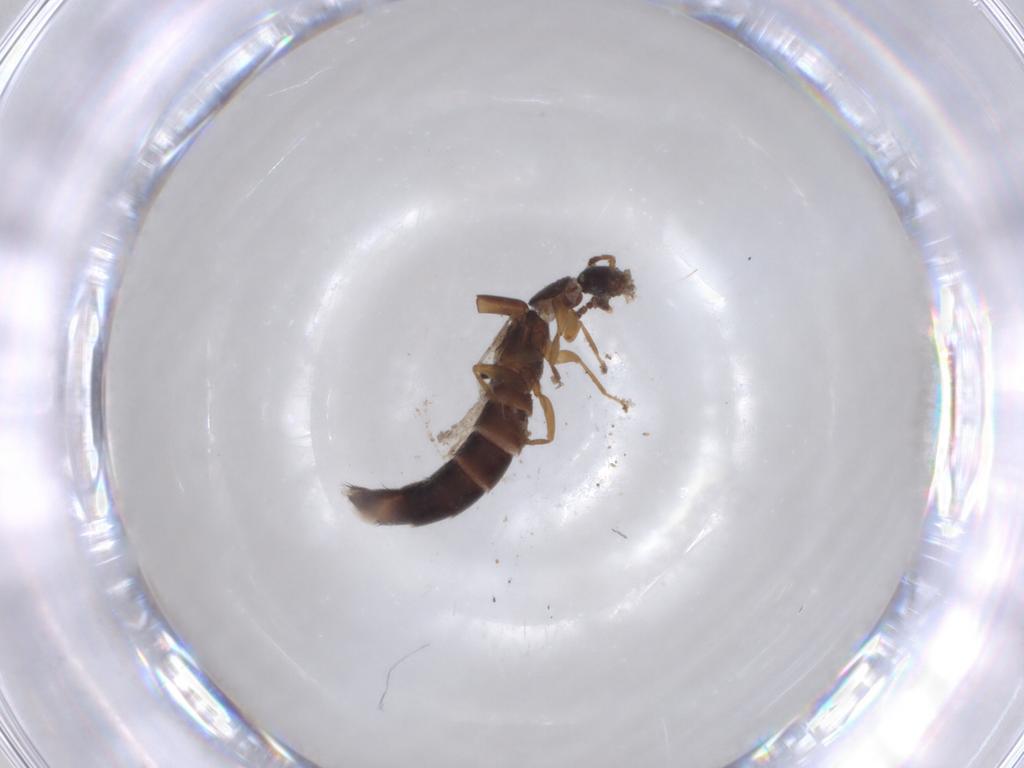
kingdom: Animalia
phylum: Arthropoda
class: Insecta
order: Coleoptera
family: Staphylinidae
